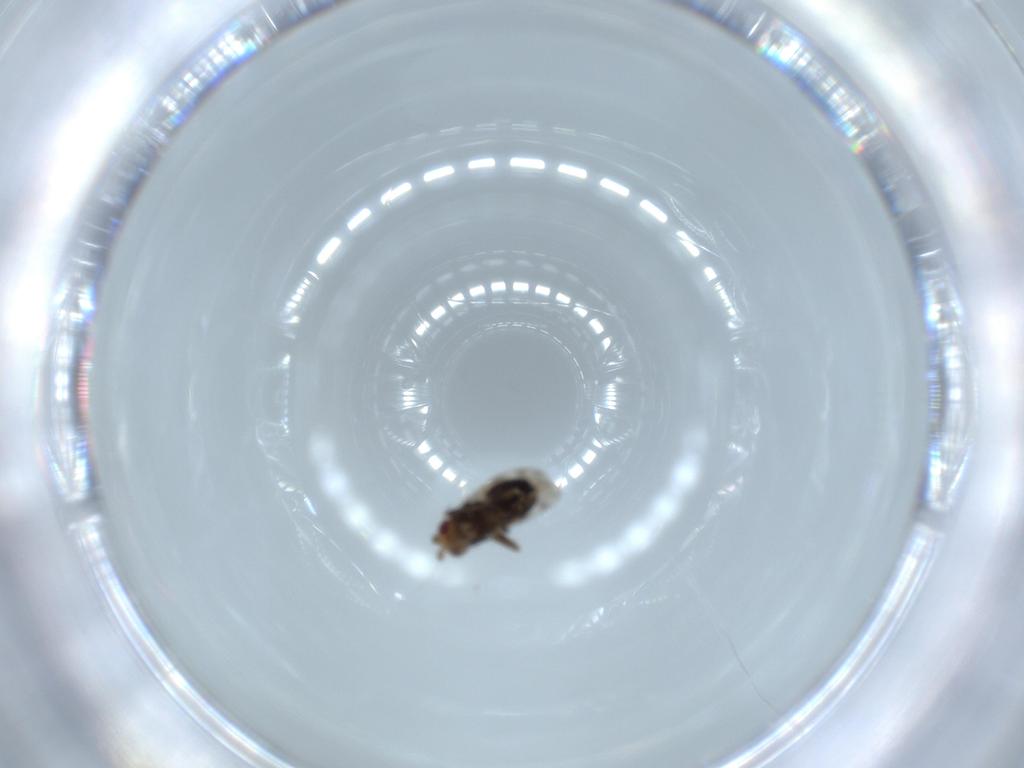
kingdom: Animalia
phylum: Arthropoda
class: Insecta
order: Diptera
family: Sphaeroceridae
